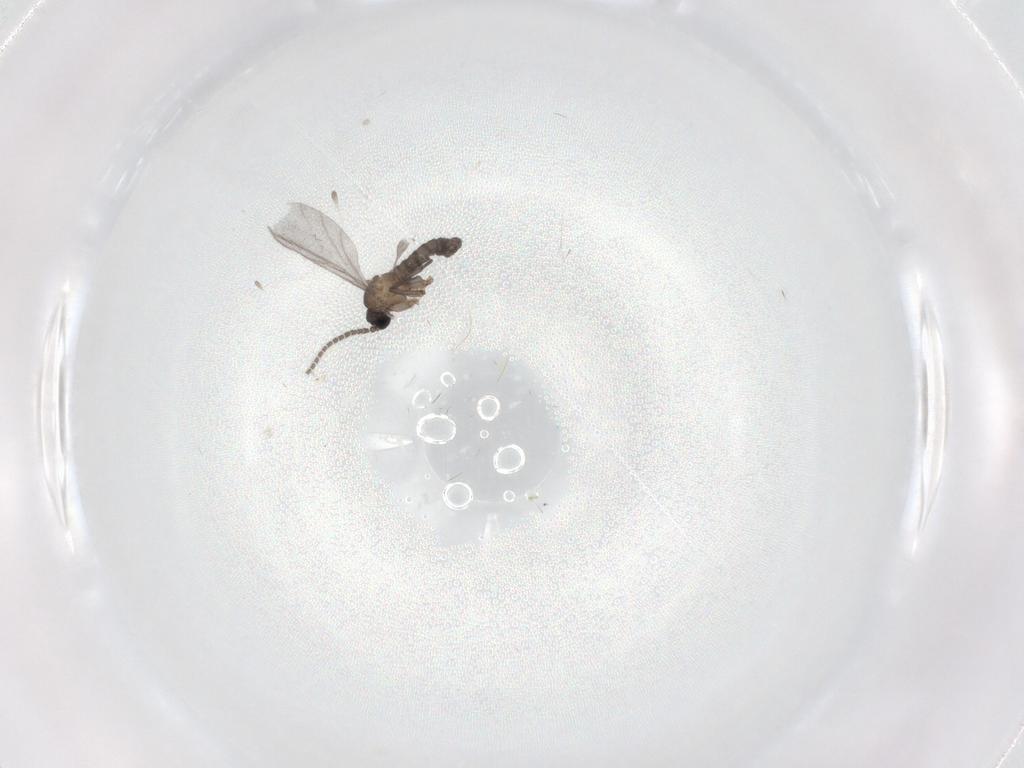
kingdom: Animalia
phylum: Arthropoda
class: Insecta
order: Diptera
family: Sciaridae
